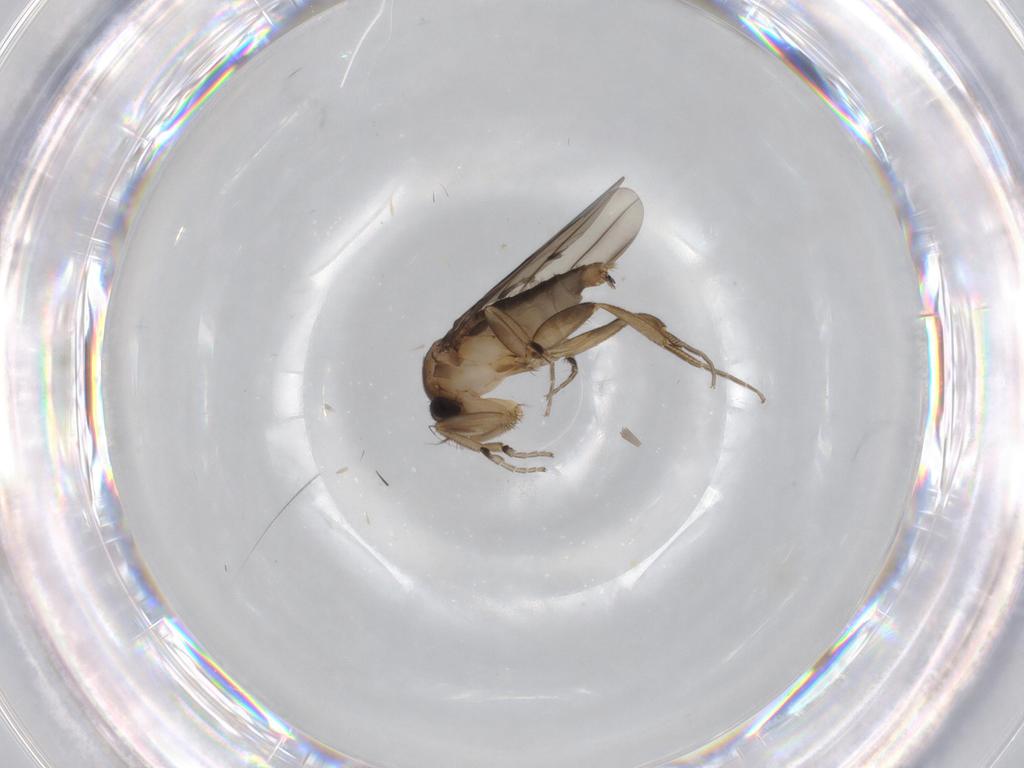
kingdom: Animalia
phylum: Arthropoda
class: Insecta
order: Diptera
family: Phoridae
